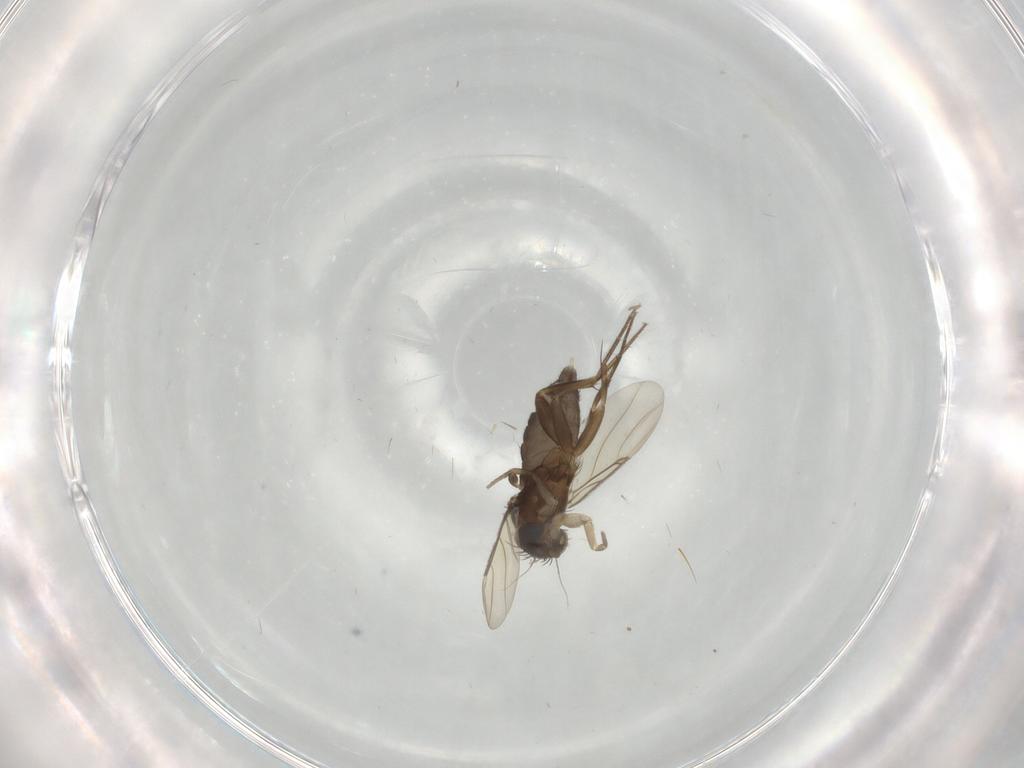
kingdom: Animalia
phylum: Arthropoda
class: Insecta
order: Diptera
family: Phoridae
